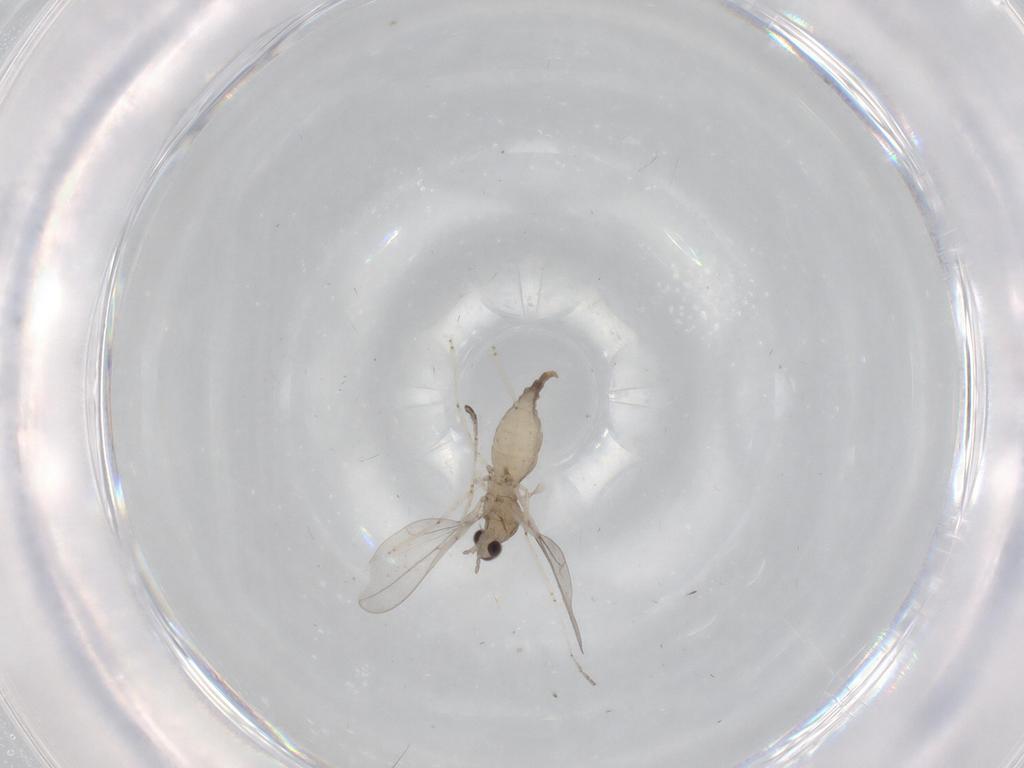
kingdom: Animalia
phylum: Arthropoda
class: Insecta
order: Diptera
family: Cecidomyiidae
